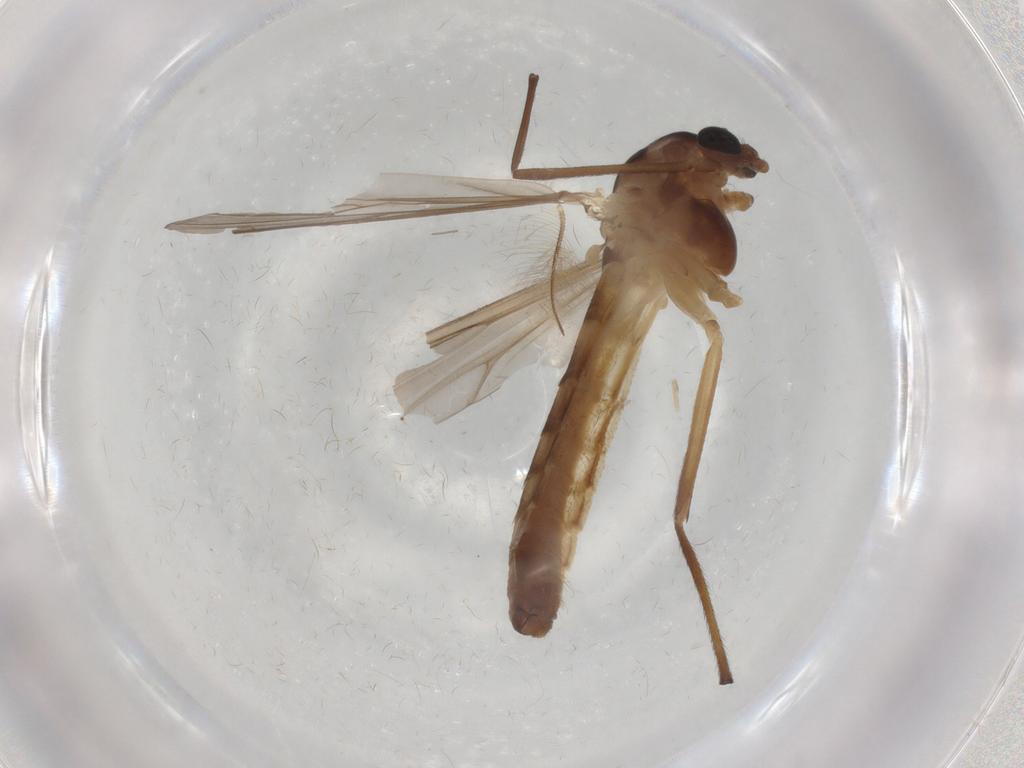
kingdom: Animalia
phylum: Arthropoda
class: Insecta
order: Diptera
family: Chironomidae
